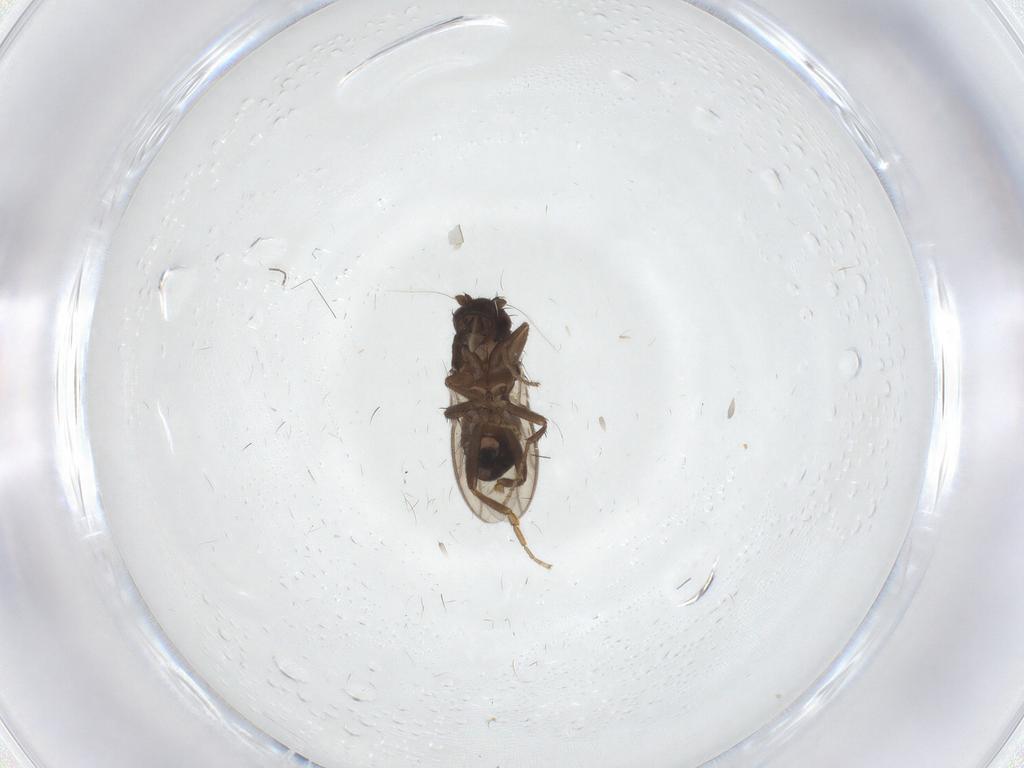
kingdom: Animalia
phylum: Arthropoda
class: Insecta
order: Diptera
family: Sphaeroceridae
